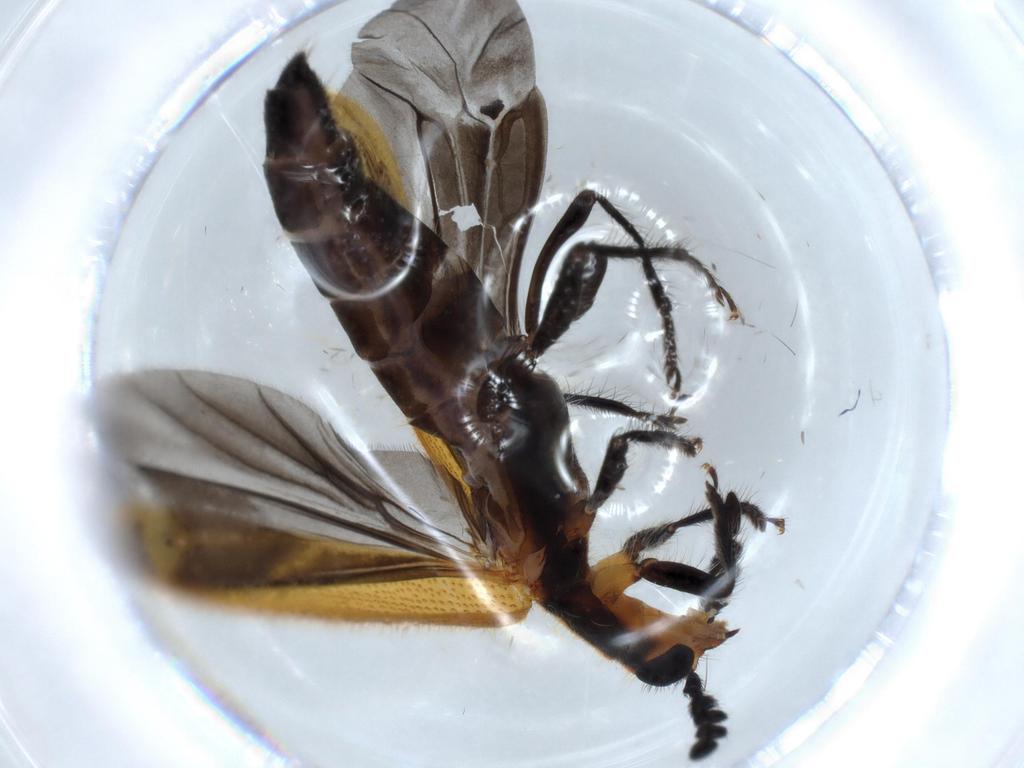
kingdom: Animalia
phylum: Arthropoda
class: Insecta
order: Coleoptera
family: Cleridae
